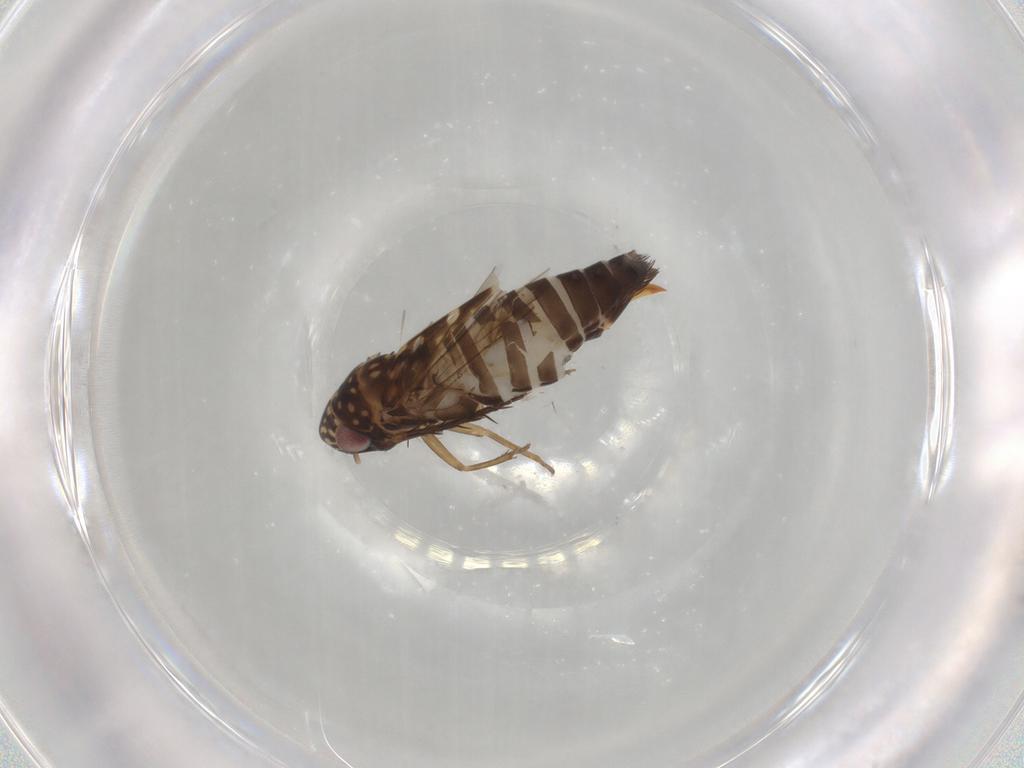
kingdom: Animalia
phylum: Arthropoda
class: Insecta
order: Hemiptera
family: Cicadellidae
